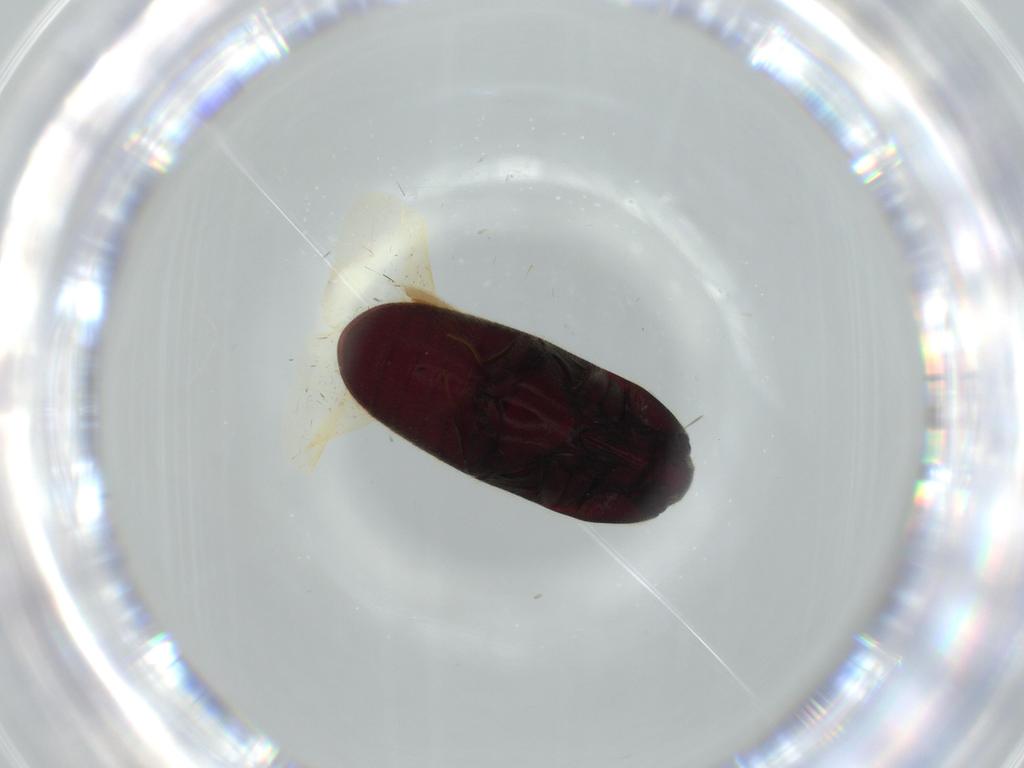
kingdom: Animalia
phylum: Arthropoda
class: Insecta
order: Coleoptera
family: Throscidae
